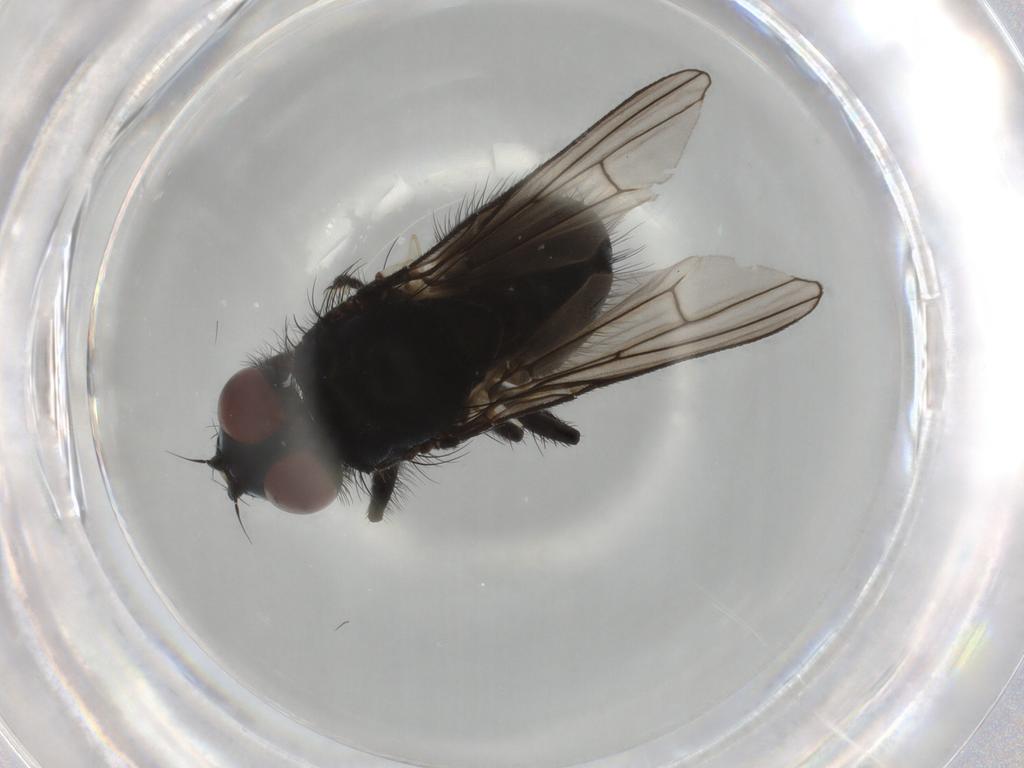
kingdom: Animalia
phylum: Arthropoda
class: Insecta
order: Diptera
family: Muscidae
